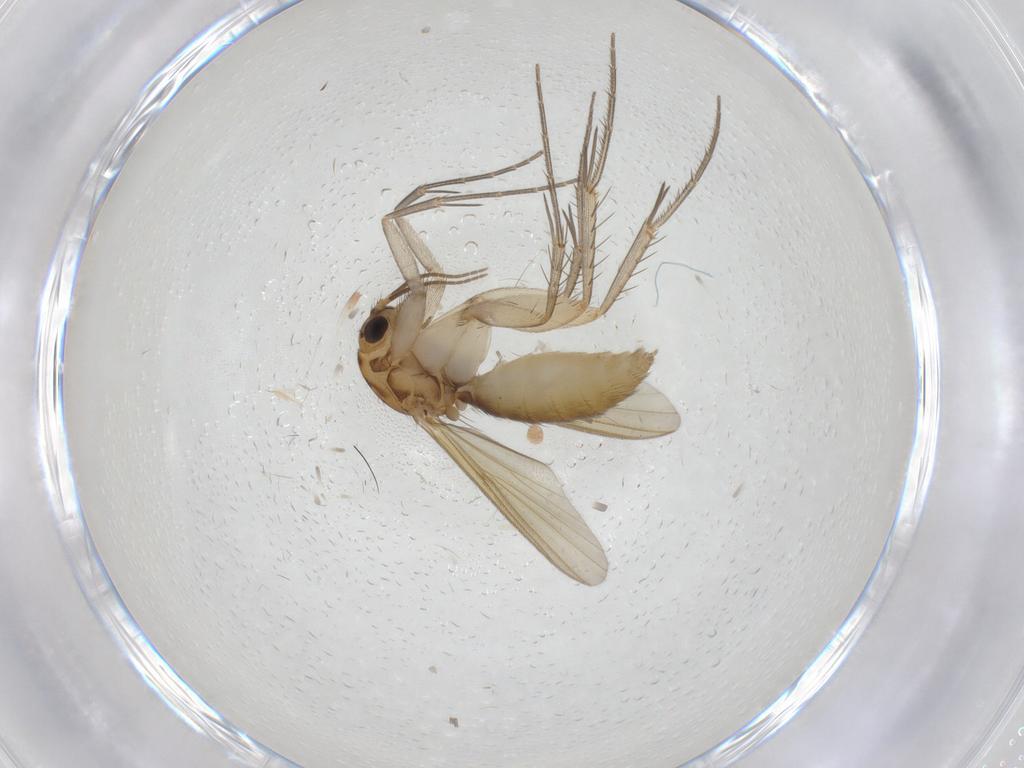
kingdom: Animalia
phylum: Arthropoda
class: Insecta
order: Diptera
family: Mycetophilidae
